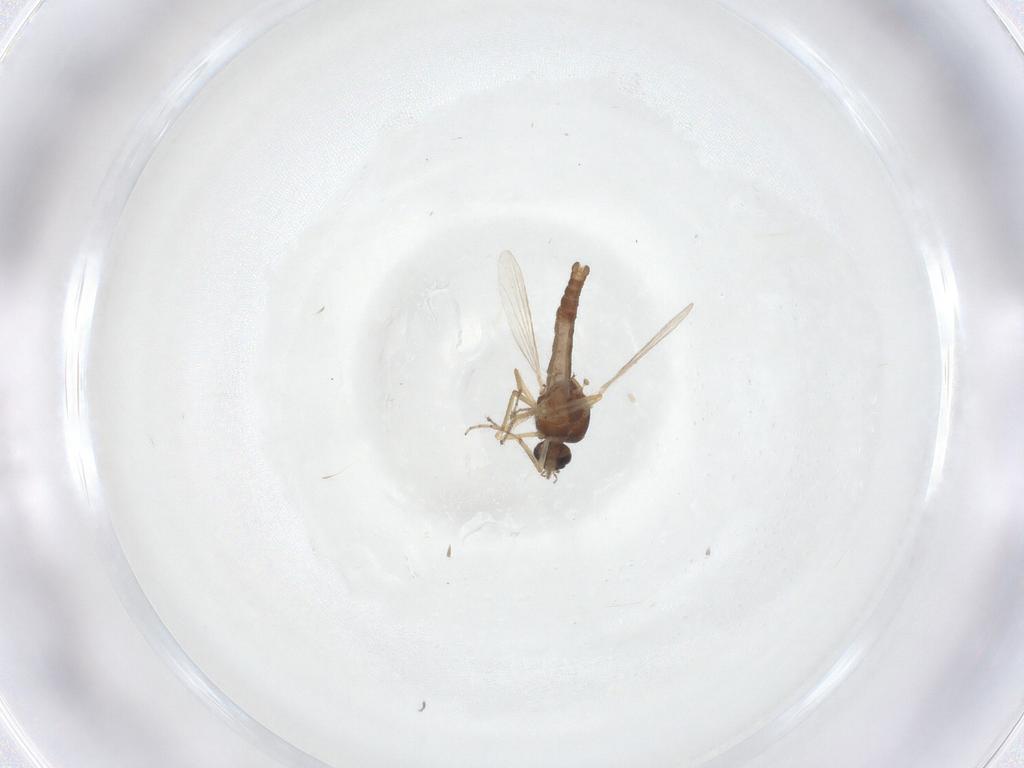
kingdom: Animalia
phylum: Arthropoda
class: Insecta
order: Diptera
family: Ceratopogonidae
